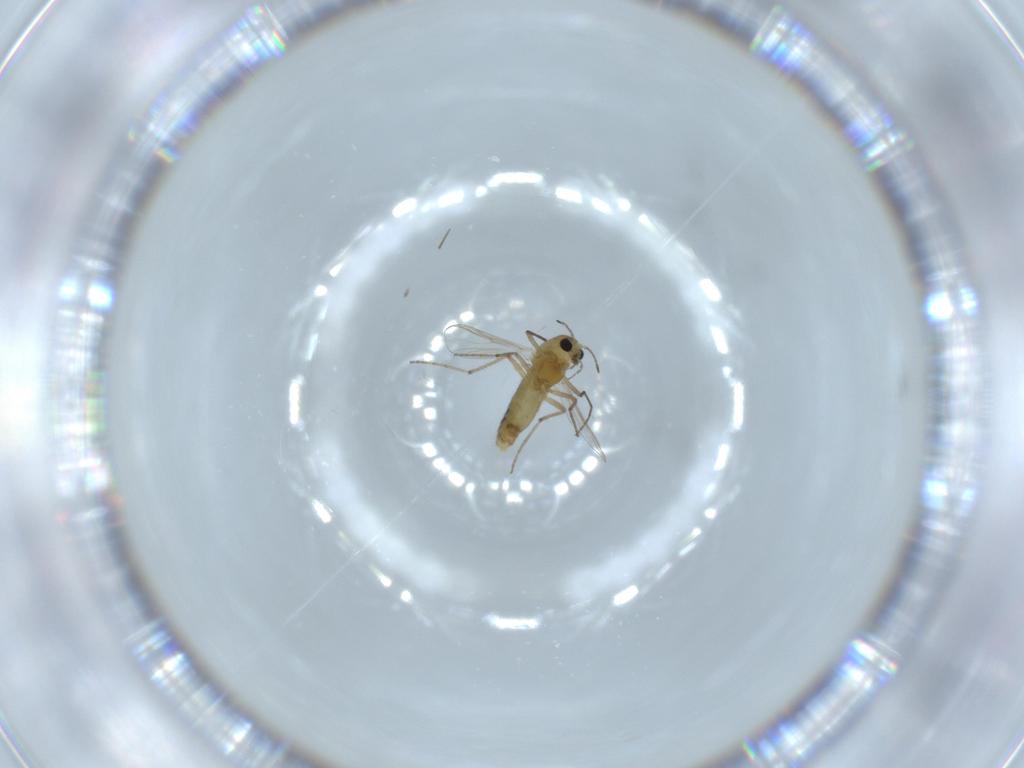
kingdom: Animalia
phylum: Arthropoda
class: Insecta
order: Diptera
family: Chironomidae
